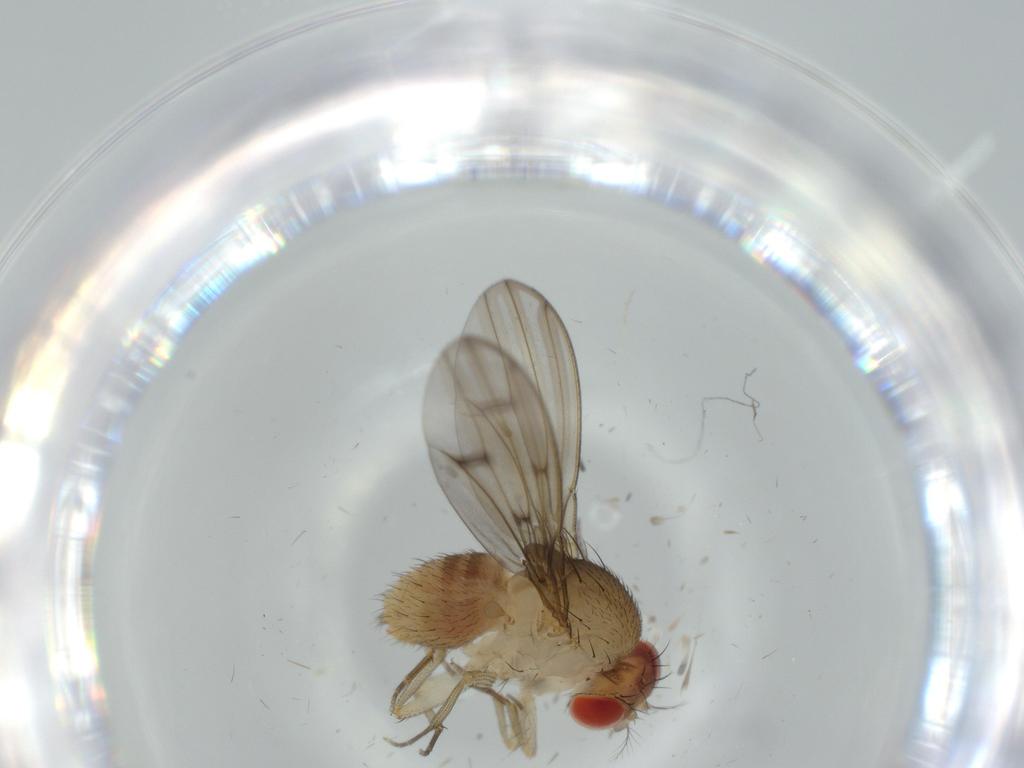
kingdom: Animalia
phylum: Arthropoda
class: Insecta
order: Diptera
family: Drosophilidae
